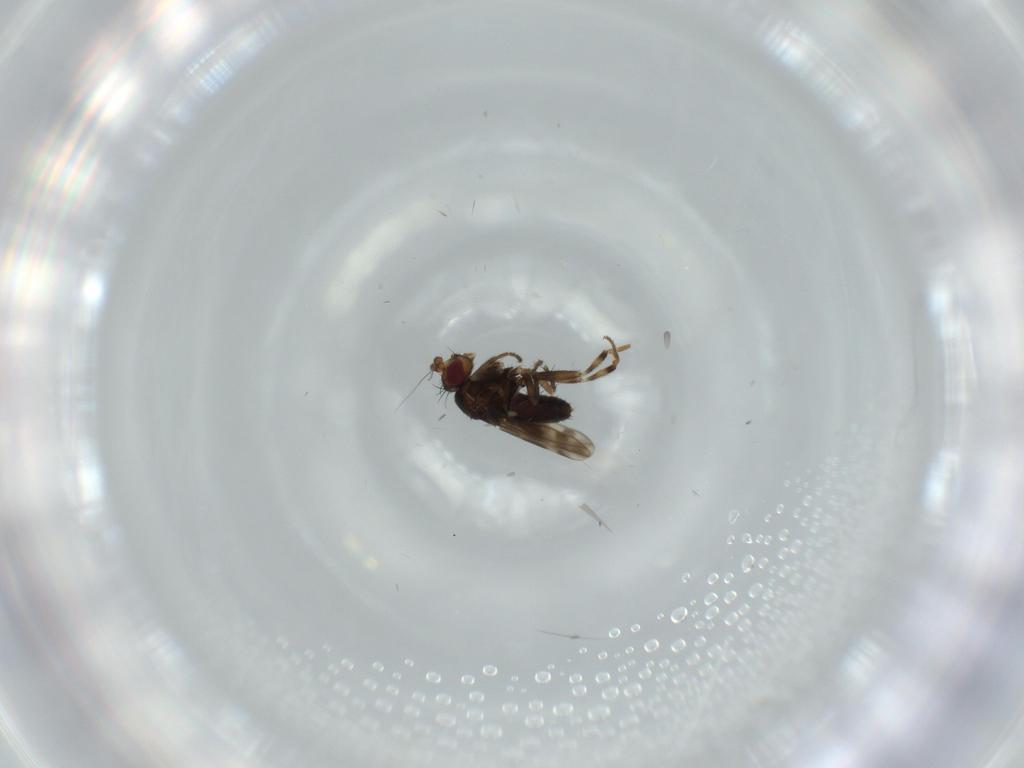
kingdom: Animalia
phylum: Arthropoda
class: Insecta
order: Diptera
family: Sphaeroceridae
